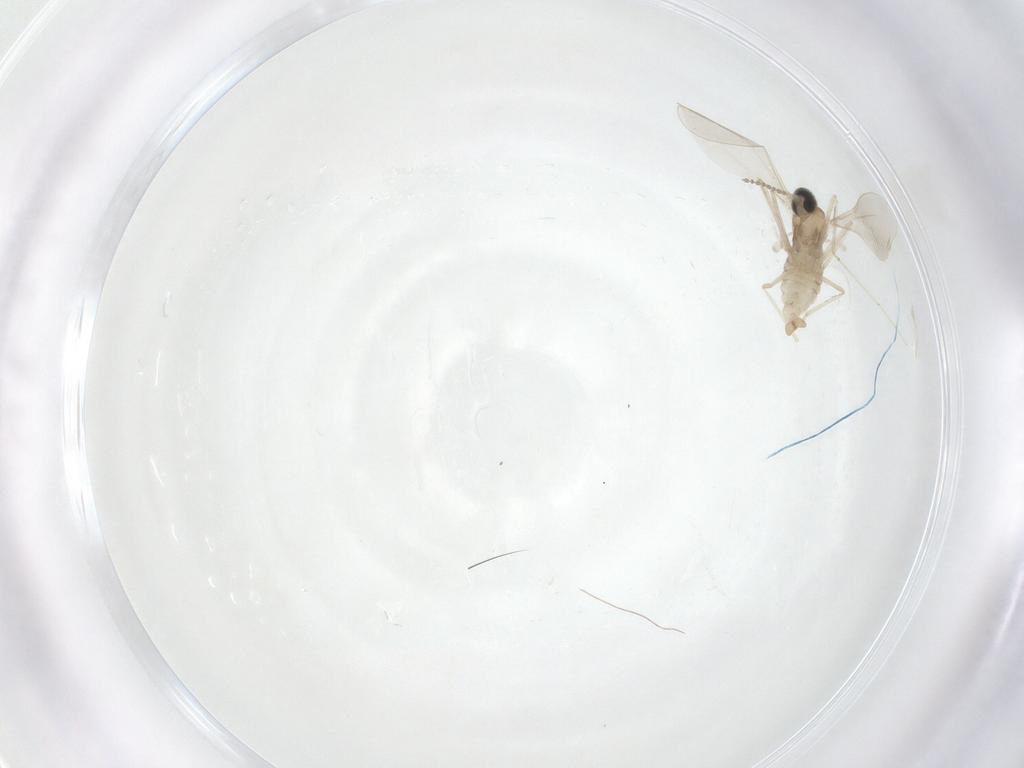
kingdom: Animalia
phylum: Arthropoda
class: Insecta
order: Diptera
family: Cecidomyiidae
